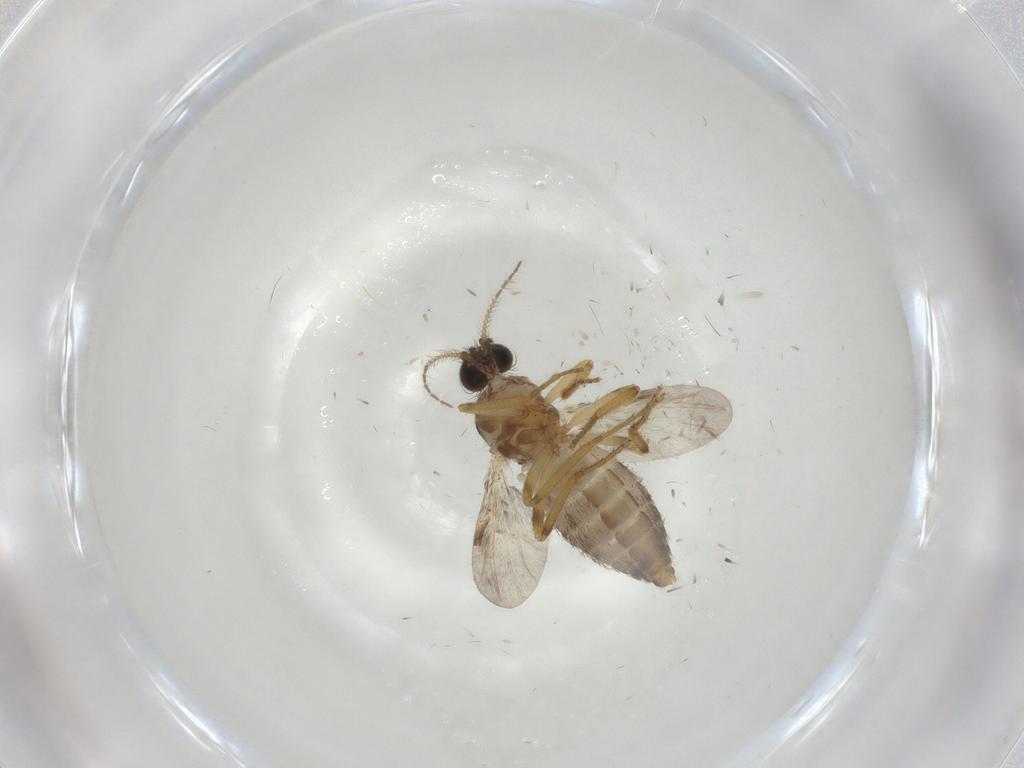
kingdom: Animalia
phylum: Arthropoda
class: Insecta
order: Diptera
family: Ceratopogonidae
